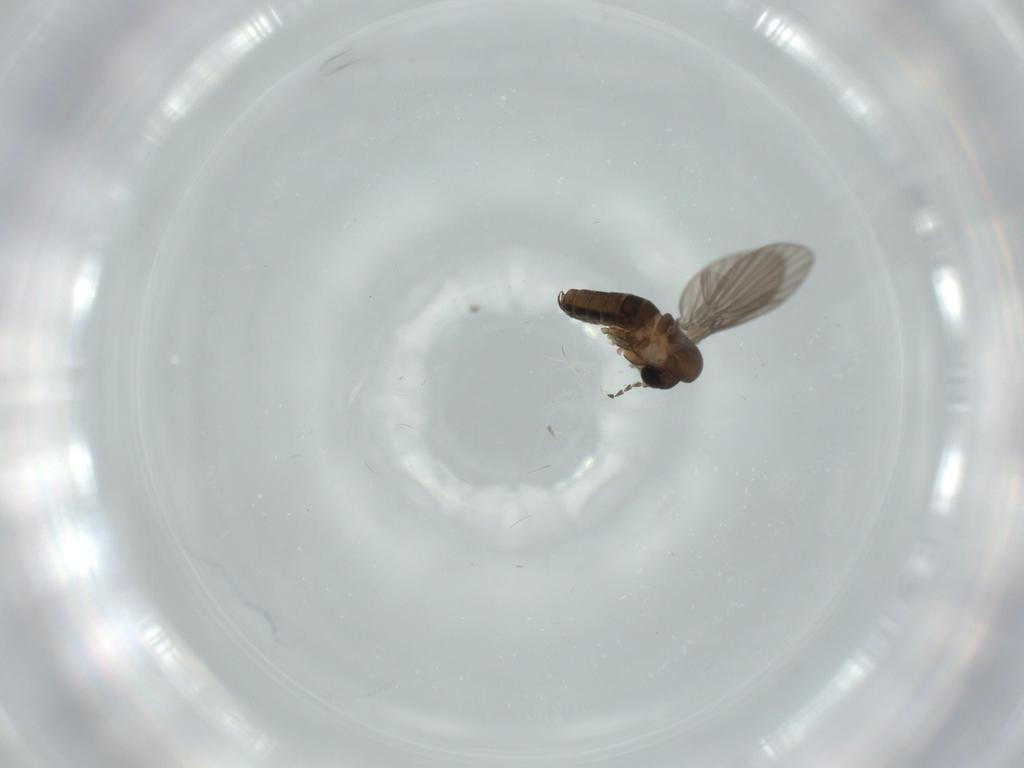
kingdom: Animalia
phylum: Arthropoda
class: Insecta
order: Diptera
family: Psychodidae
